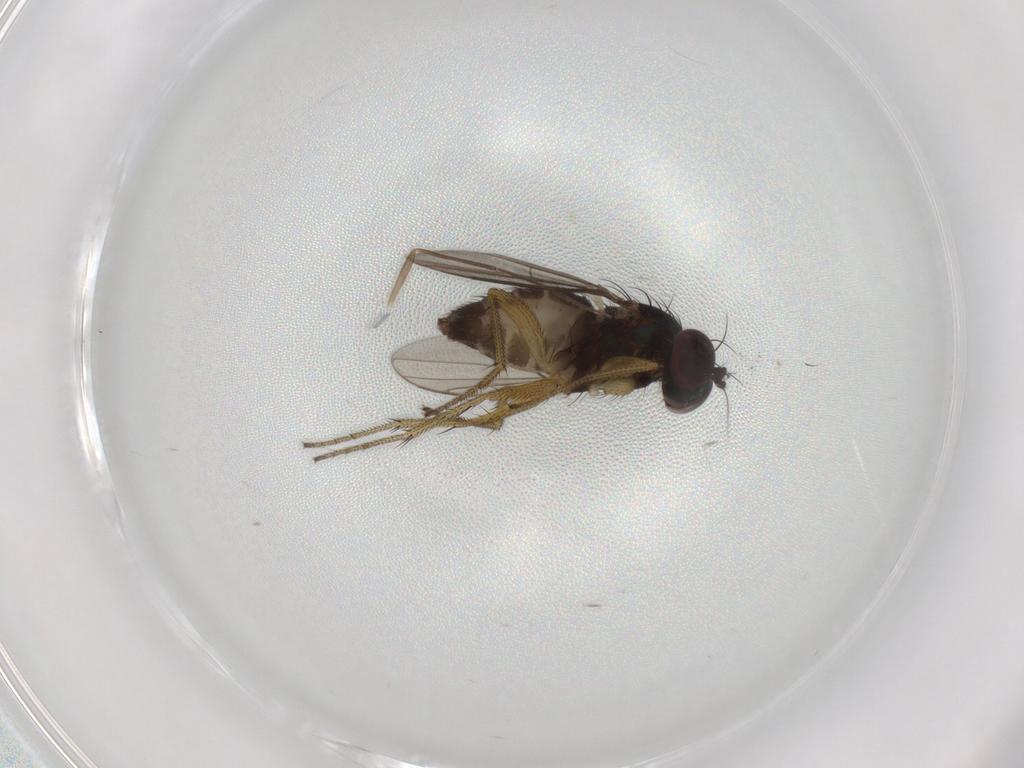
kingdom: Animalia
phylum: Arthropoda
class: Insecta
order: Diptera
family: Dolichopodidae
